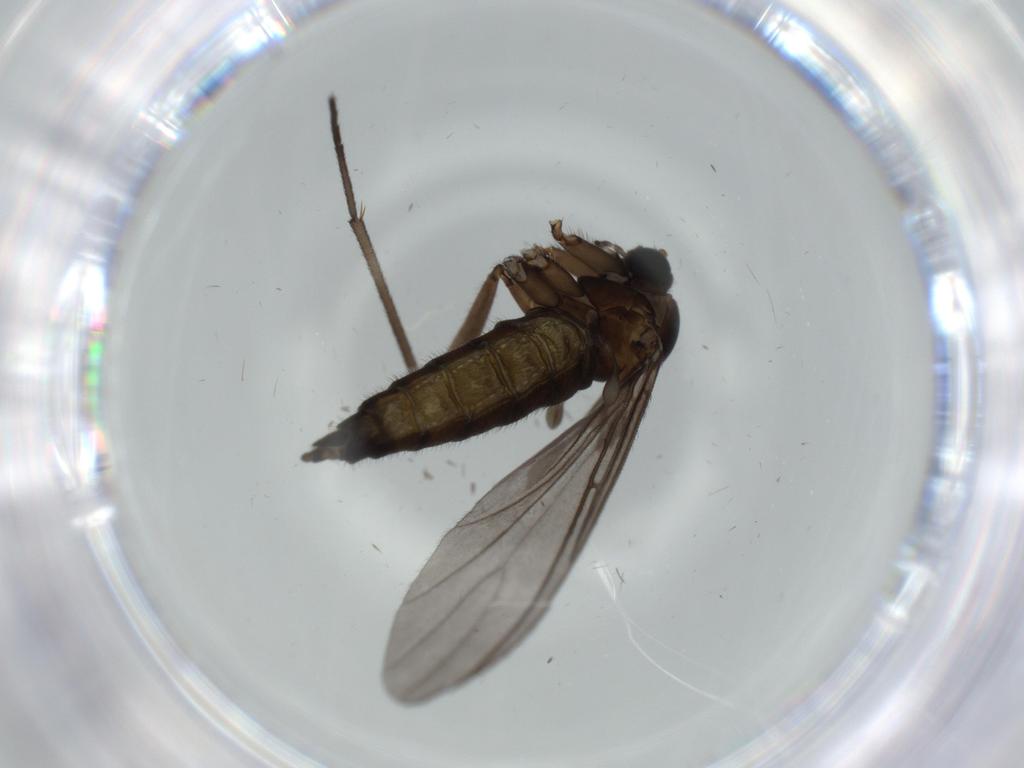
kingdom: Animalia
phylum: Arthropoda
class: Insecta
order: Diptera
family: Sciaridae
